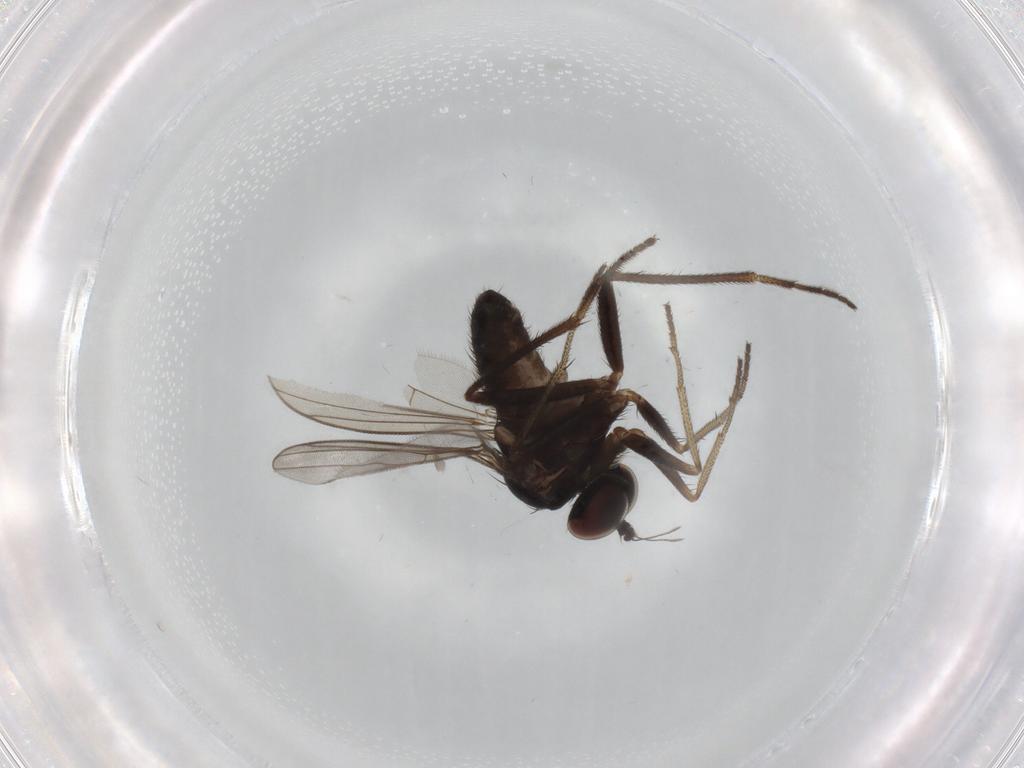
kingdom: Animalia
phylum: Arthropoda
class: Insecta
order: Diptera
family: Dolichopodidae
